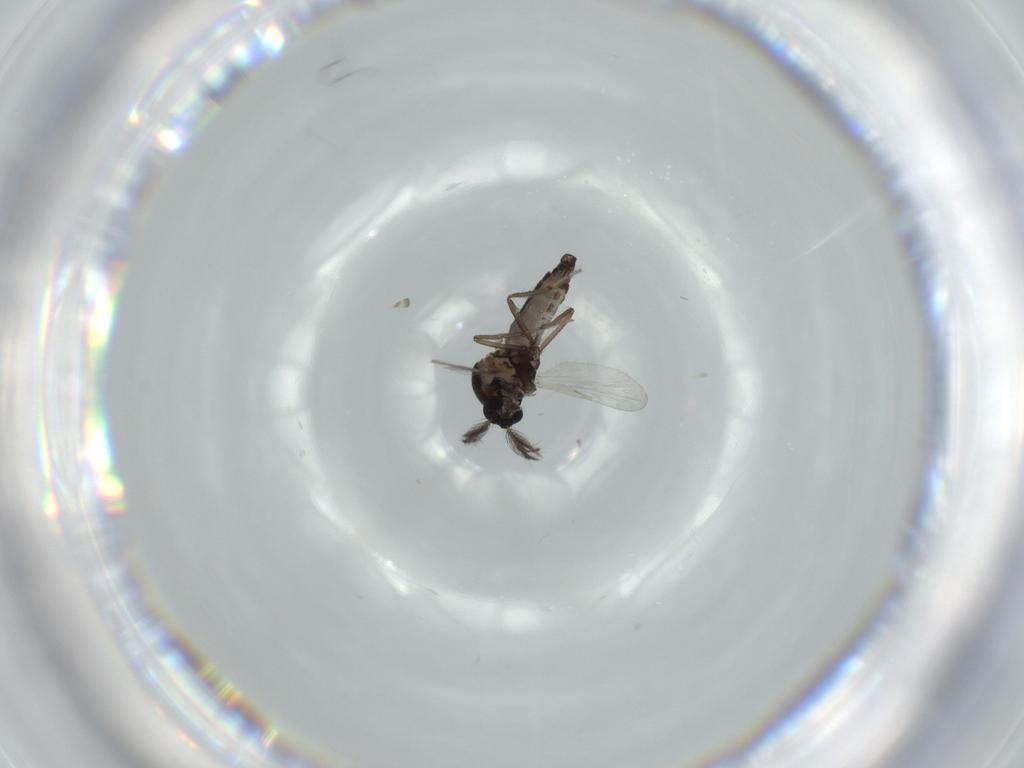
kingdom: Animalia
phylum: Arthropoda
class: Insecta
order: Diptera
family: Ceratopogonidae
